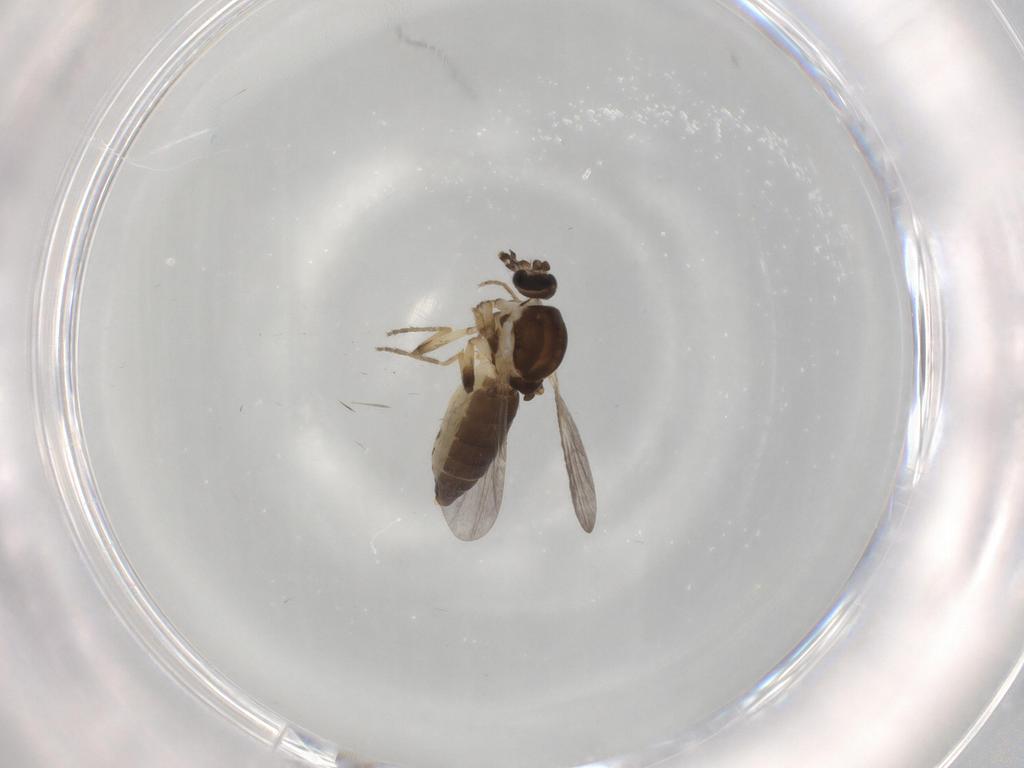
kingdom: Animalia
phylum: Arthropoda
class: Insecta
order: Diptera
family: Ceratopogonidae
